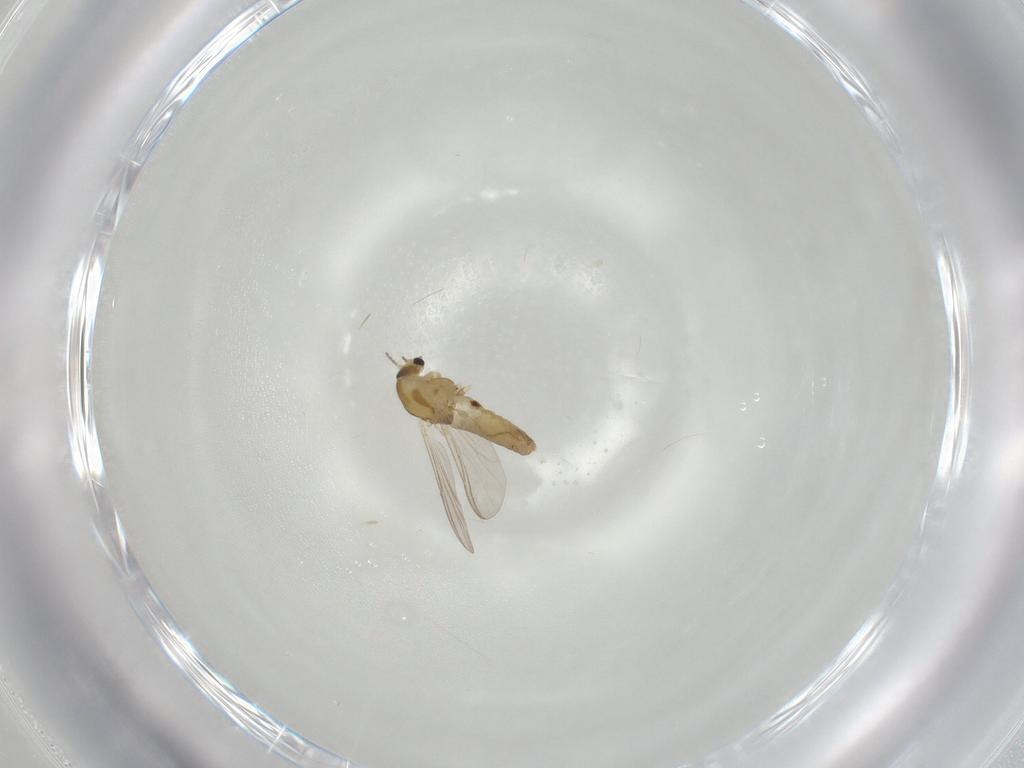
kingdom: Animalia
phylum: Arthropoda
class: Insecta
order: Diptera
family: Chironomidae
